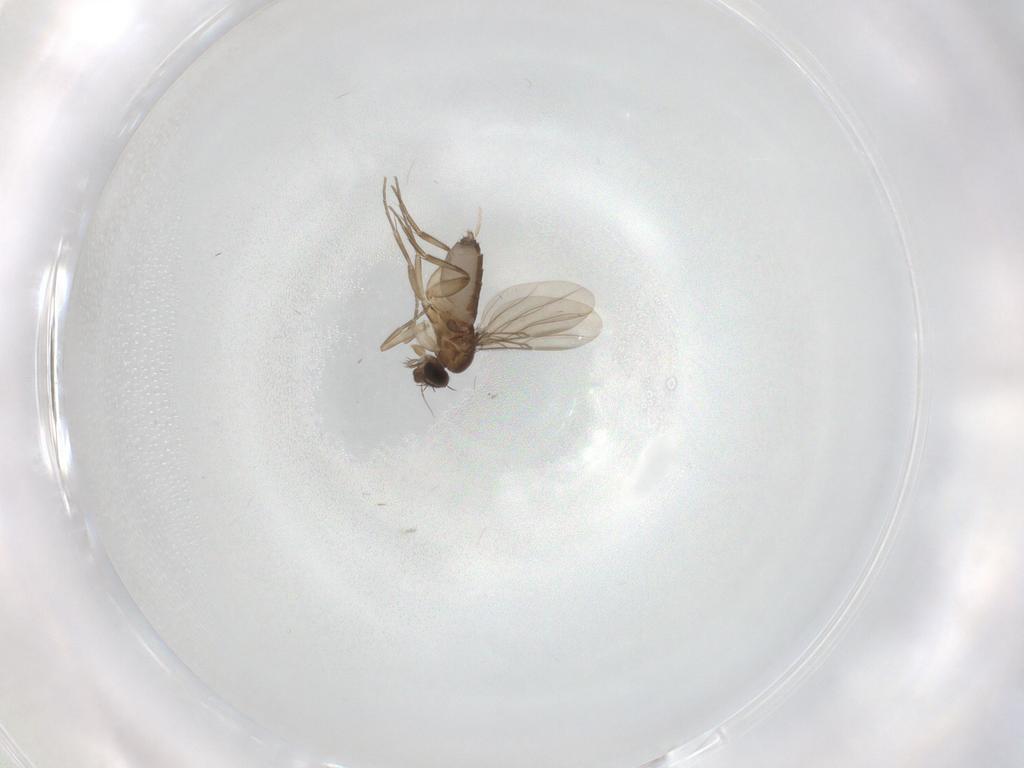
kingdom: Animalia
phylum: Arthropoda
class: Insecta
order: Diptera
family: Phoridae
